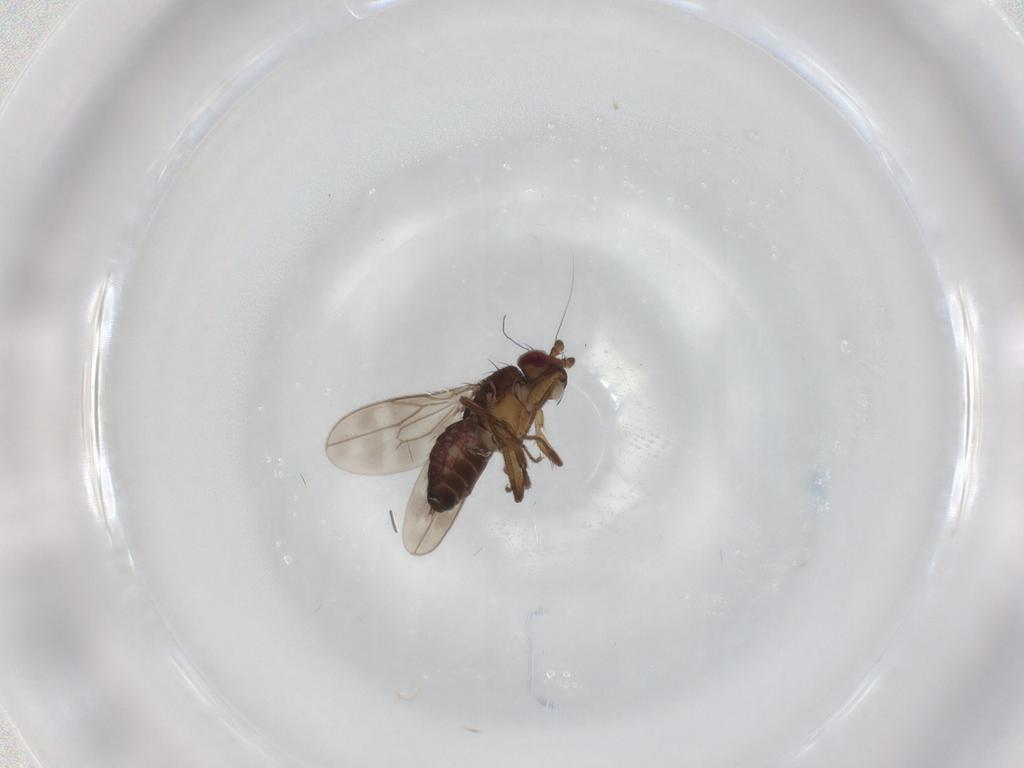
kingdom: Animalia
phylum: Arthropoda
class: Insecta
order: Diptera
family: Sphaeroceridae
